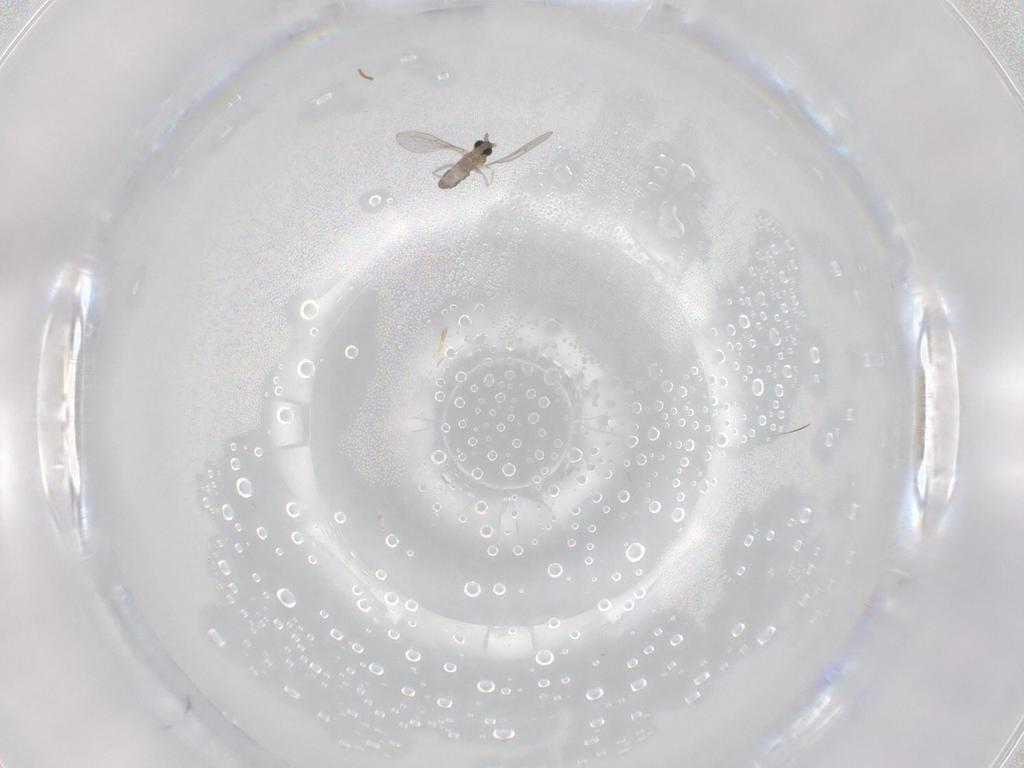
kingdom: Animalia
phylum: Arthropoda
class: Insecta
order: Diptera
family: Cecidomyiidae
